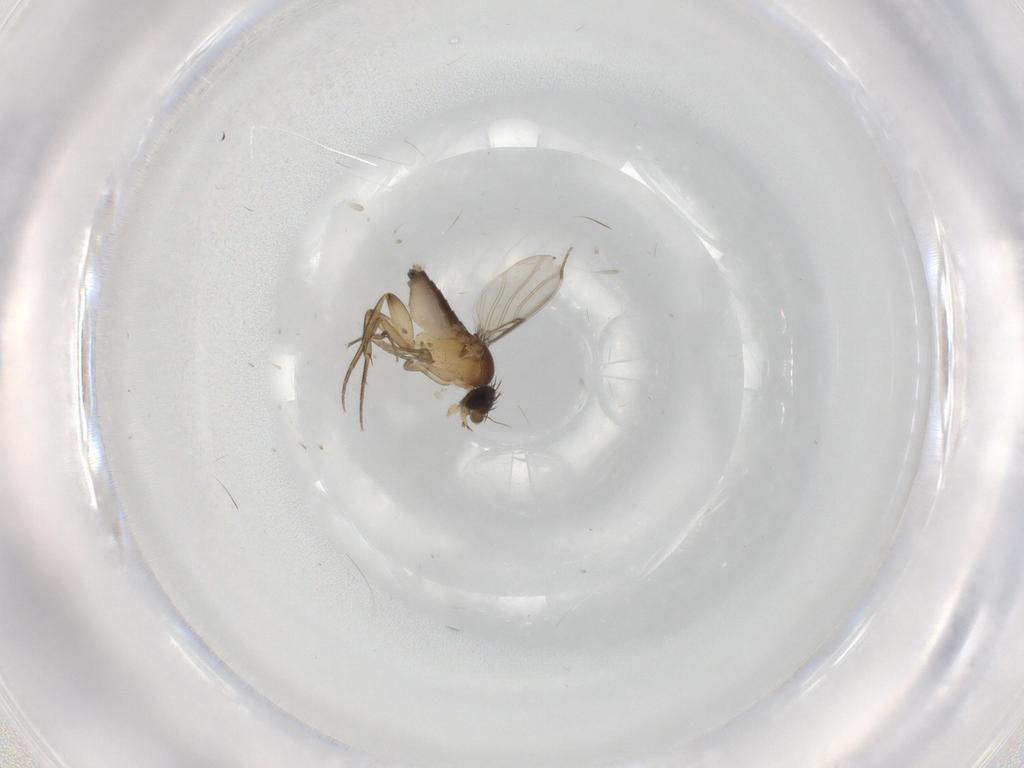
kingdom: Animalia
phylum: Arthropoda
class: Insecta
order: Diptera
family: Phoridae
